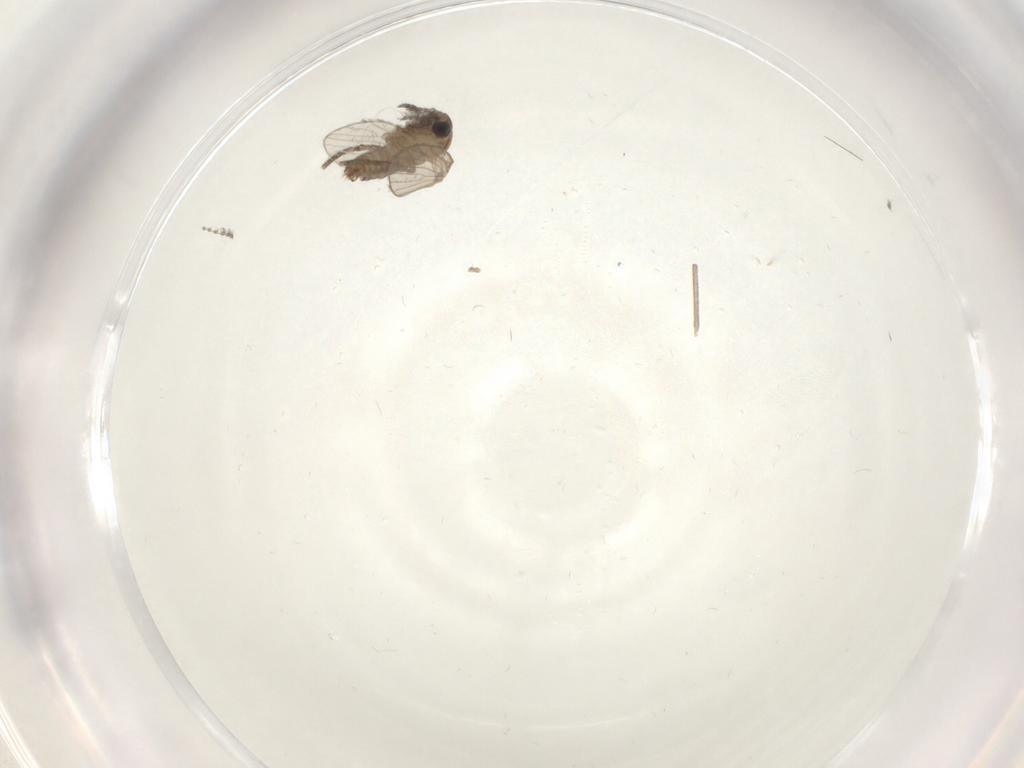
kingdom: Animalia
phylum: Arthropoda
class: Insecta
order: Diptera
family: Psychodidae
